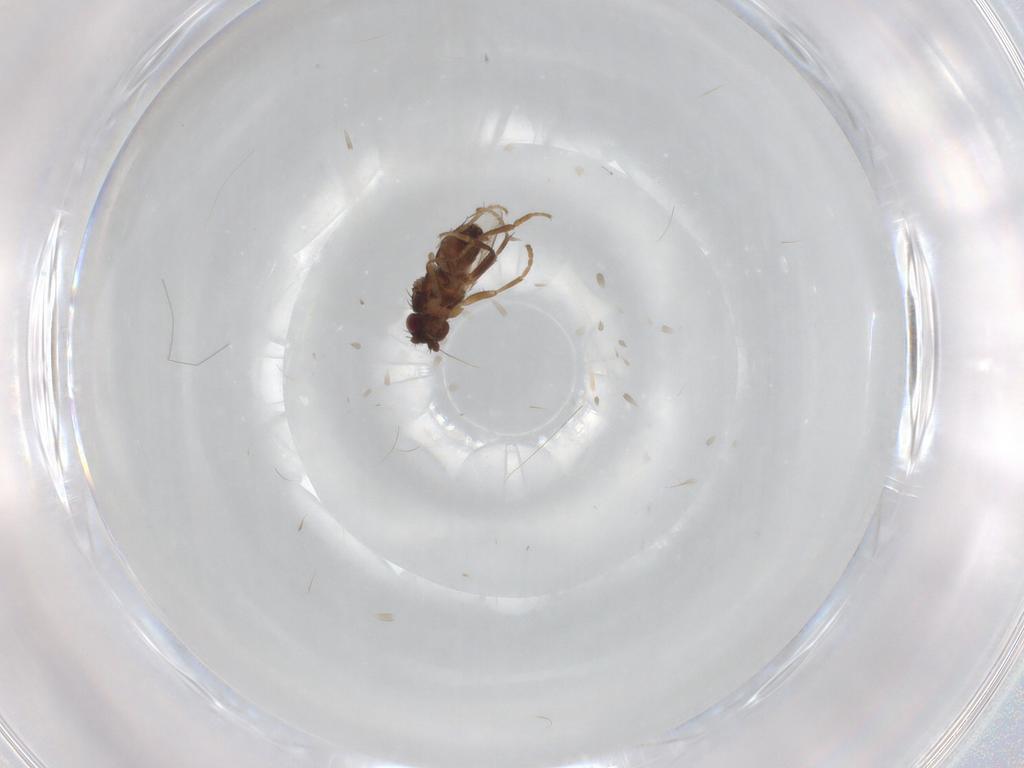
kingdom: Animalia
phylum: Arthropoda
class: Insecta
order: Diptera
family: Sphaeroceridae
